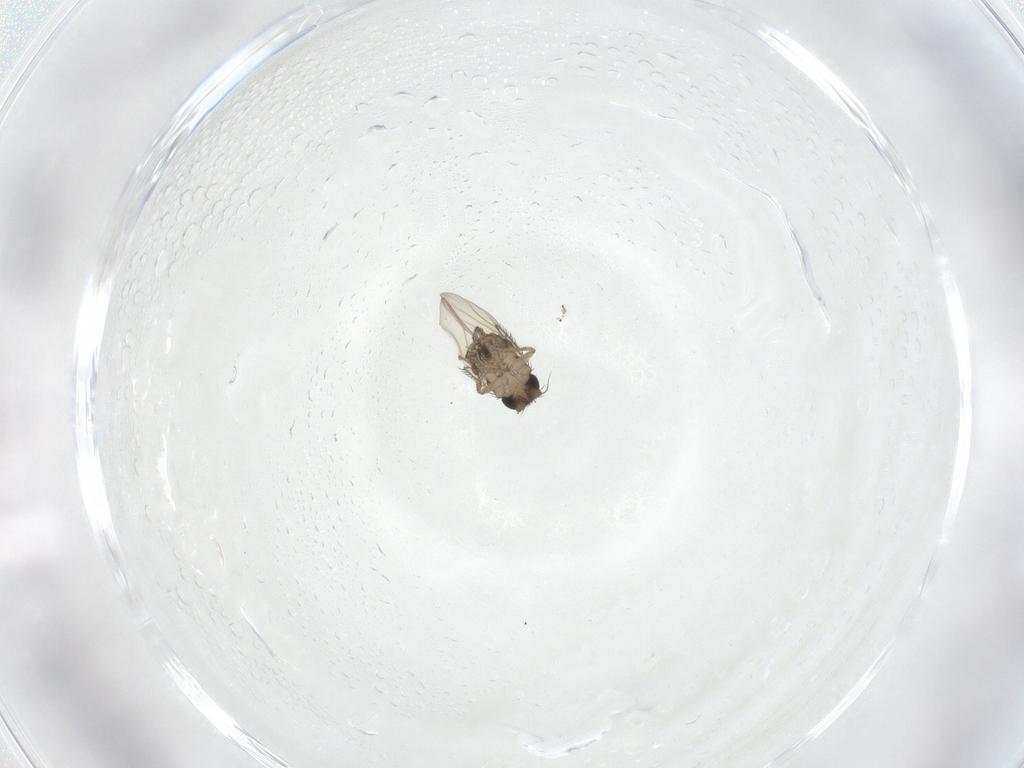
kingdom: Animalia
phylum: Arthropoda
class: Insecta
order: Diptera
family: Phoridae
